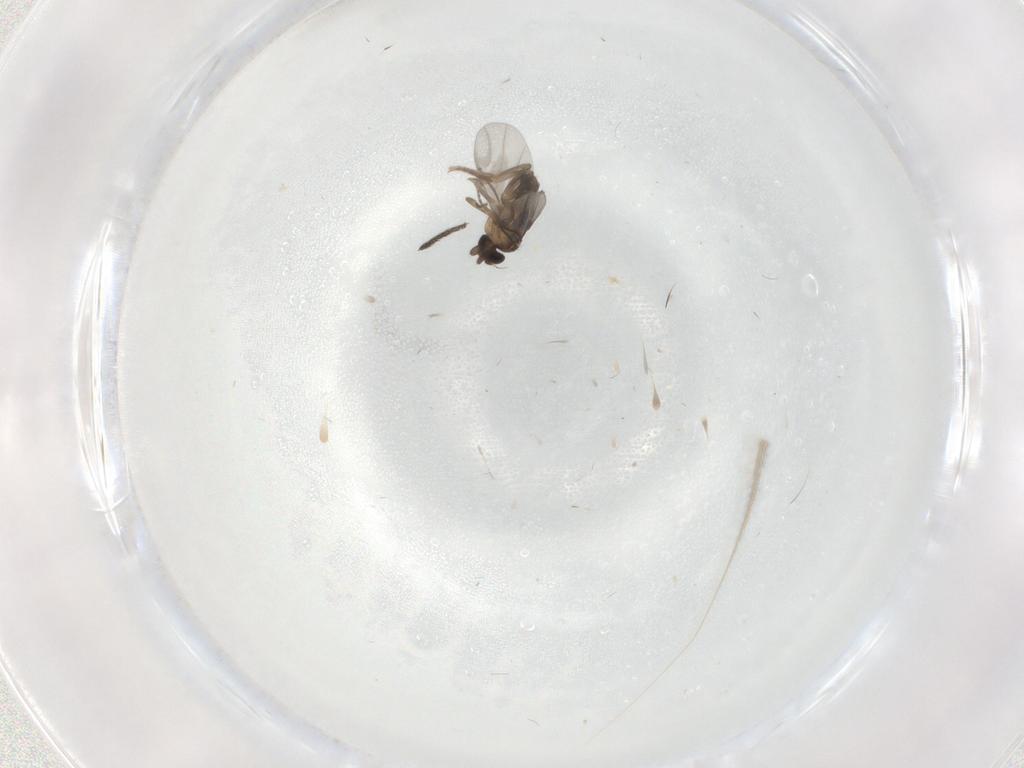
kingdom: Animalia
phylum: Arthropoda
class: Insecta
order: Diptera
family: Sciaridae
